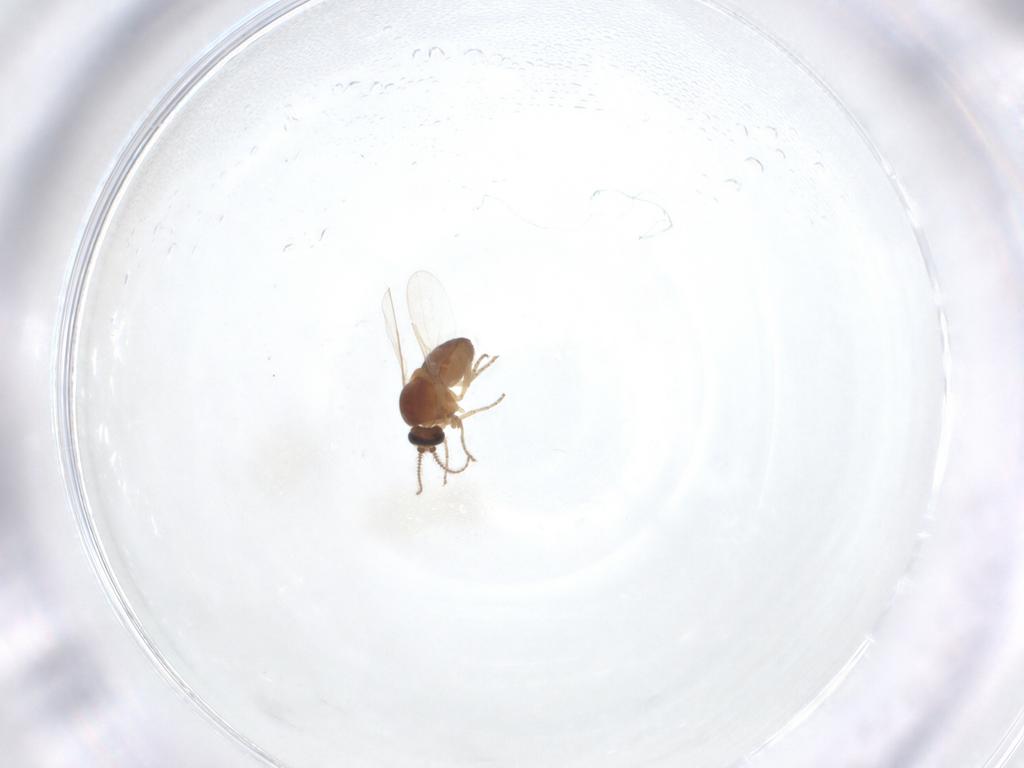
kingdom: Animalia
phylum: Arthropoda
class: Insecta
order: Diptera
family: Ceratopogonidae
